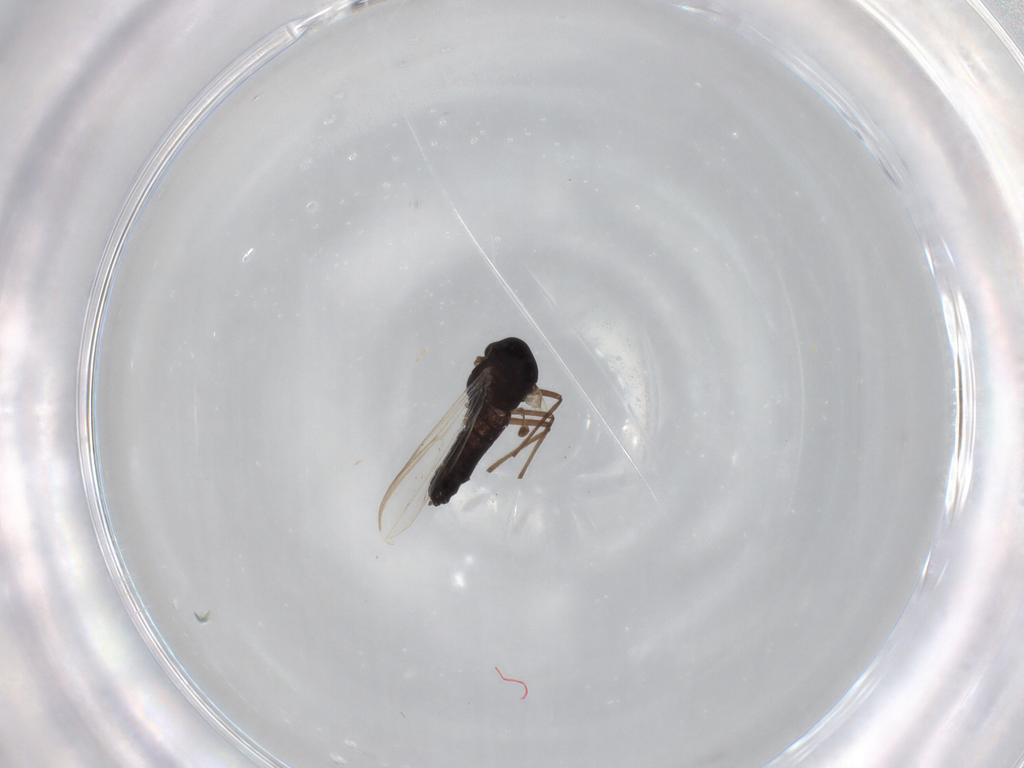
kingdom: Animalia
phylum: Arthropoda
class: Insecta
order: Diptera
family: Chironomidae
